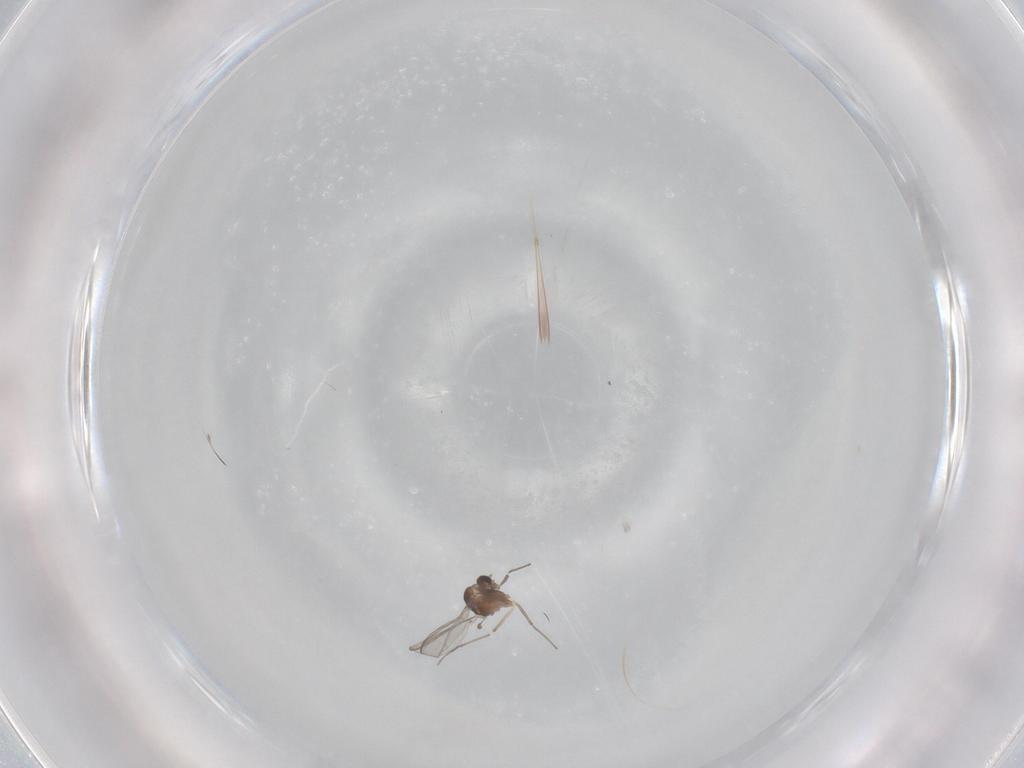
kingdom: Animalia
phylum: Arthropoda
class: Insecta
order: Diptera
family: Chironomidae
